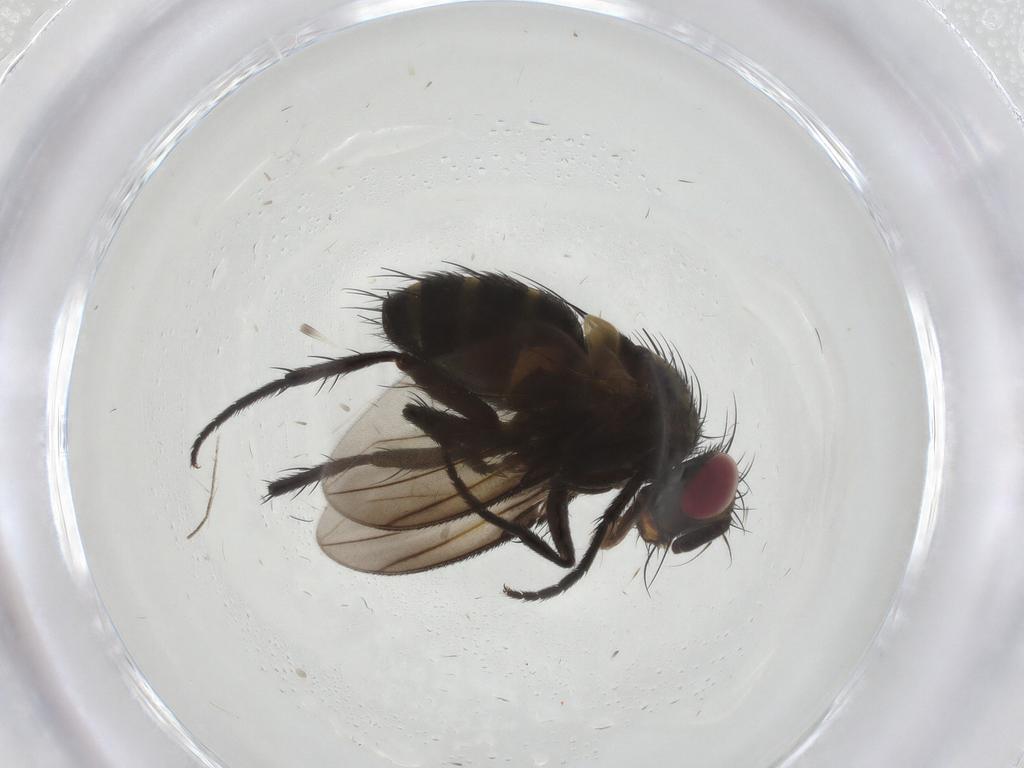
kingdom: Animalia
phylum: Arthropoda
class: Insecta
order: Diptera
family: Dolichopodidae
